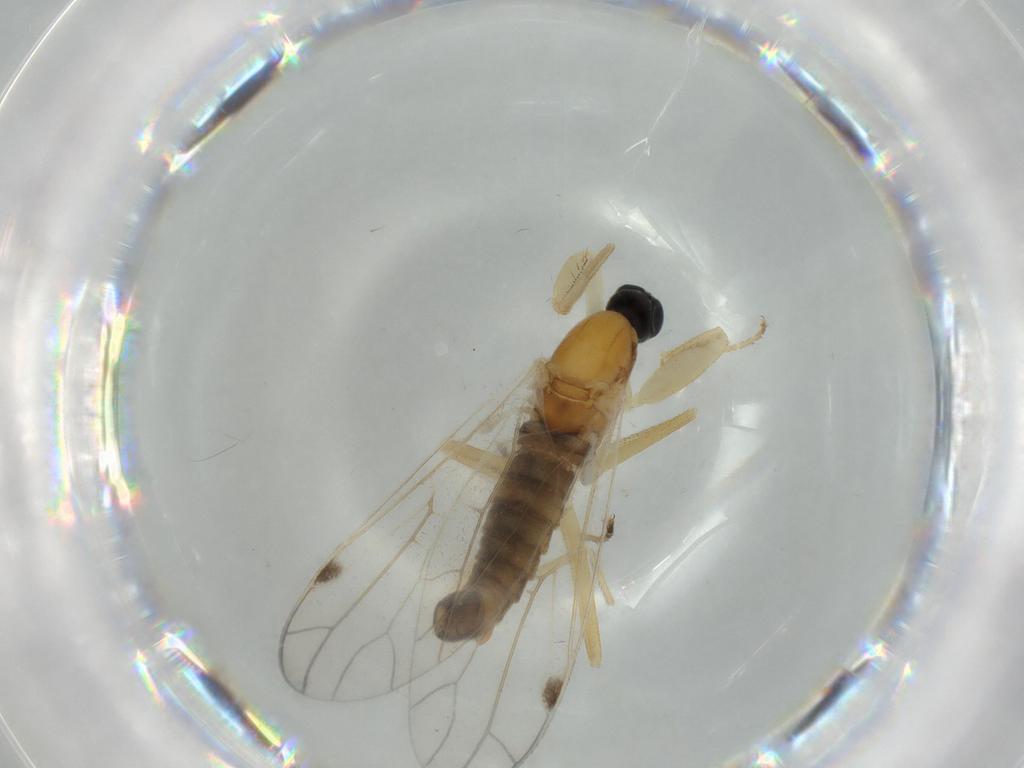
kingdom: Animalia
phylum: Arthropoda
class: Insecta
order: Diptera
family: Empididae
